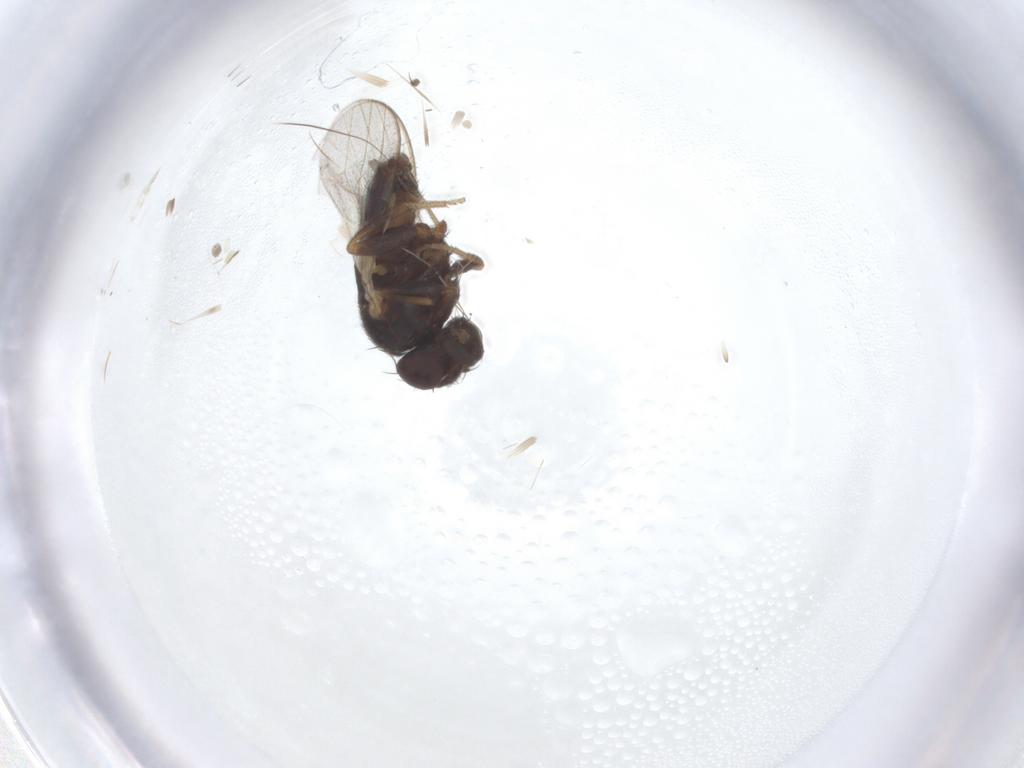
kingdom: Animalia
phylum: Arthropoda
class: Insecta
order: Diptera
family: Milichiidae
